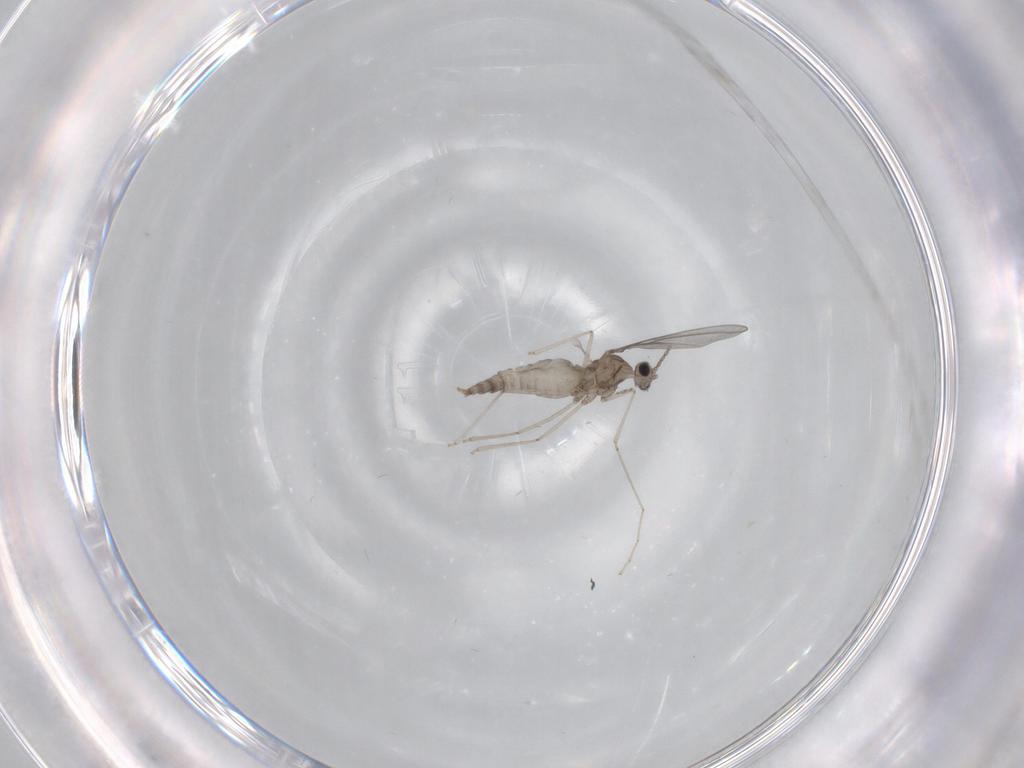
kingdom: Animalia
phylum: Arthropoda
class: Insecta
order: Diptera
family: Cecidomyiidae
